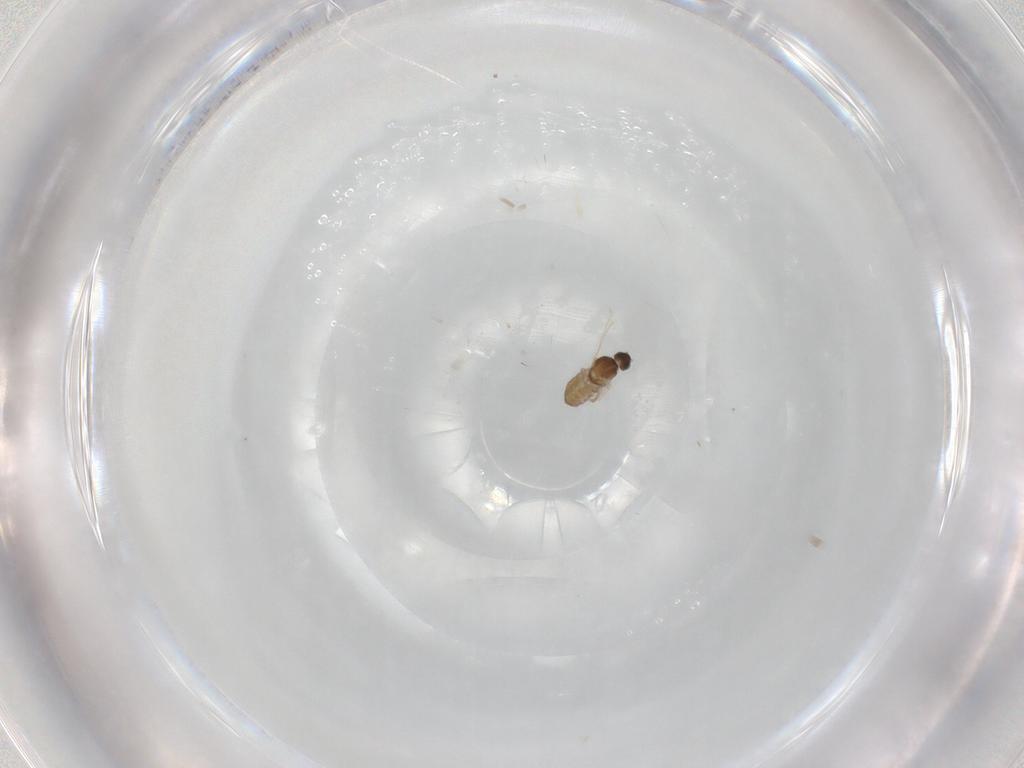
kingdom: Animalia
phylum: Arthropoda
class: Insecta
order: Diptera
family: Cecidomyiidae
